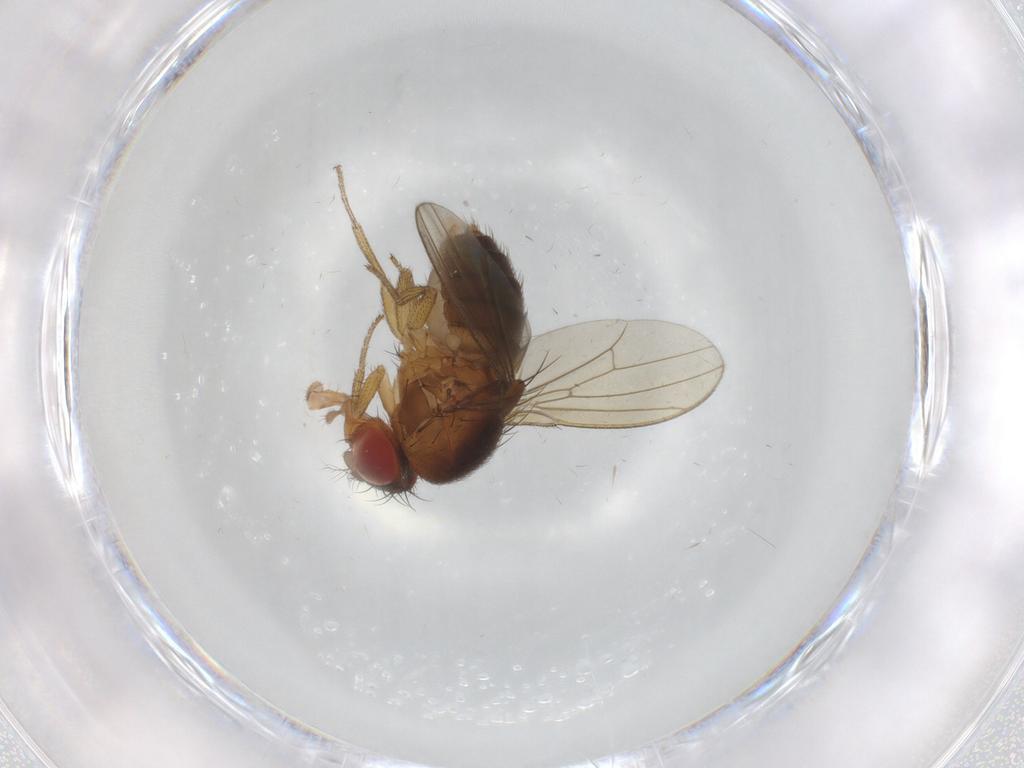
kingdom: Animalia
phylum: Arthropoda
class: Insecta
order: Diptera
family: Drosophilidae
